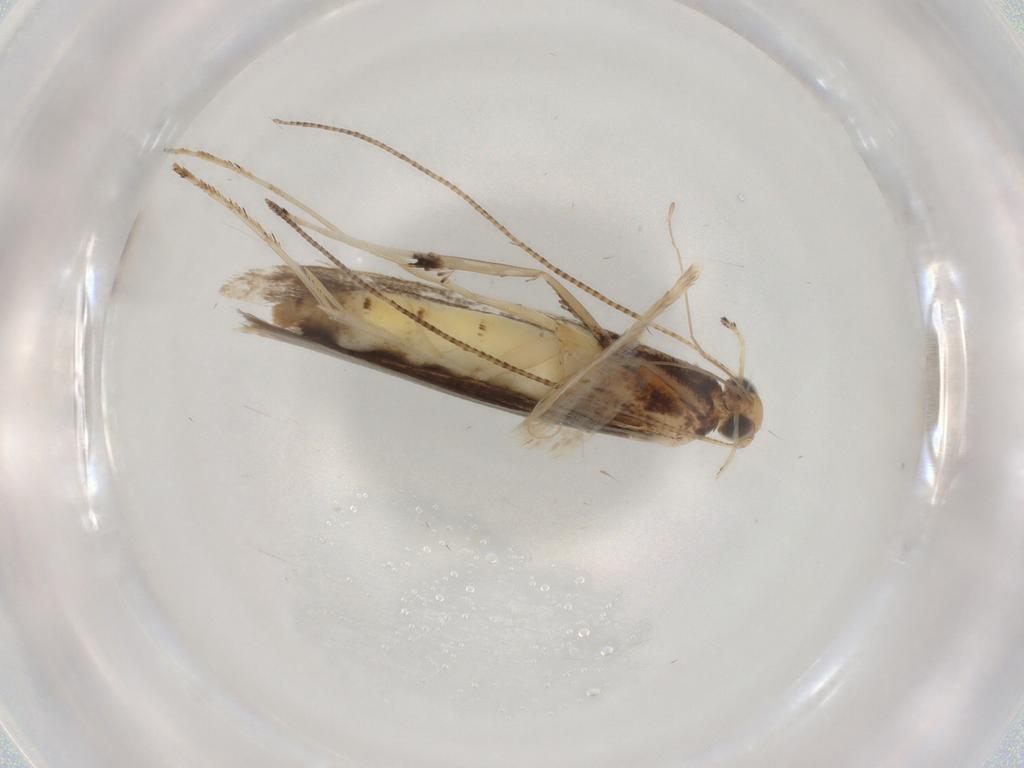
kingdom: Animalia
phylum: Arthropoda
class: Insecta
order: Lepidoptera
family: Gracillariidae
